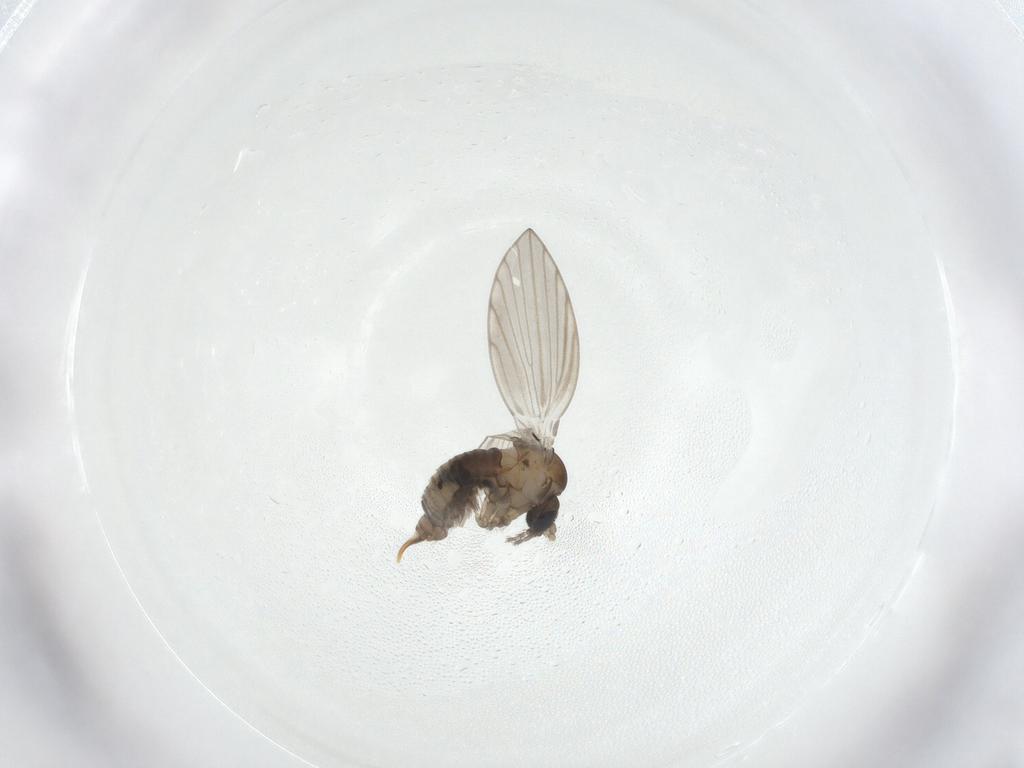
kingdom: Animalia
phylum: Arthropoda
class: Insecta
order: Diptera
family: Psychodidae
